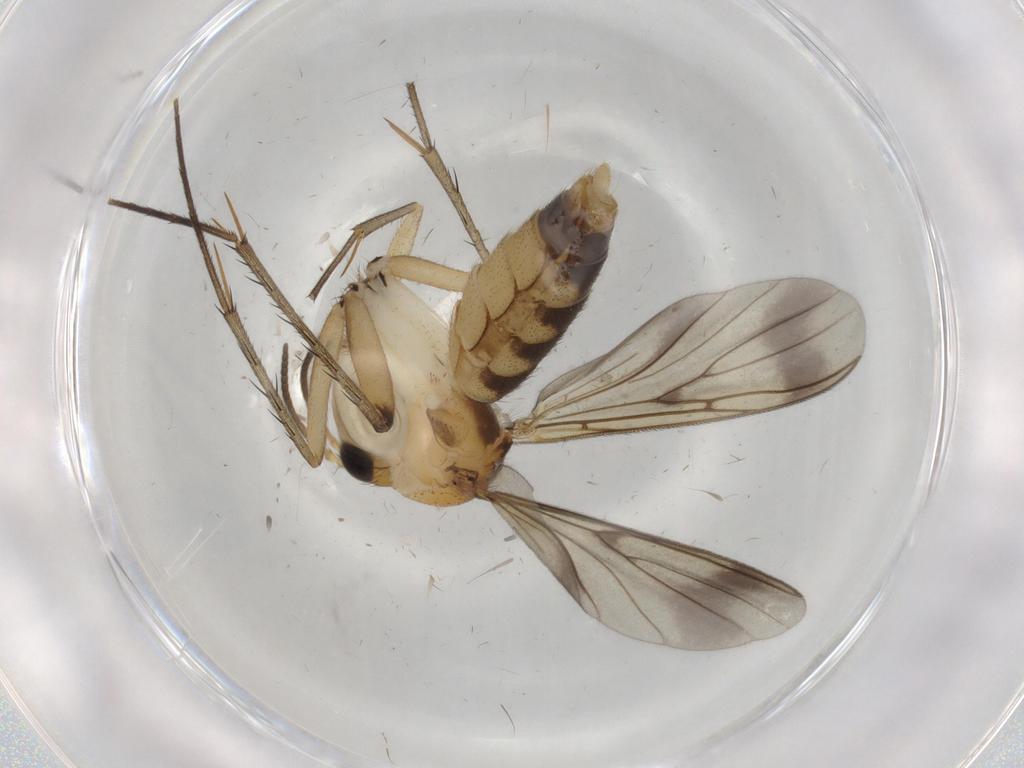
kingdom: Animalia
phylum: Arthropoda
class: Insecta
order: Diptera
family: Mycetophilidae
